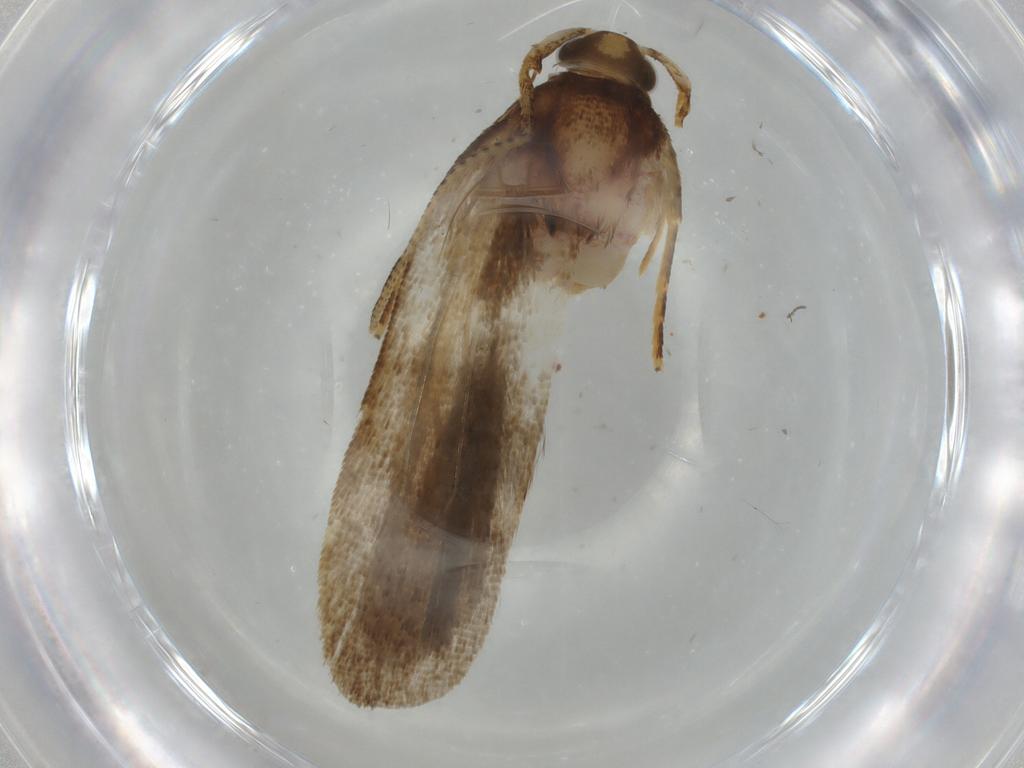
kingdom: Animalia
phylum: Arthropoda
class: Insecta
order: Lepidoptera
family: Autostichidae
